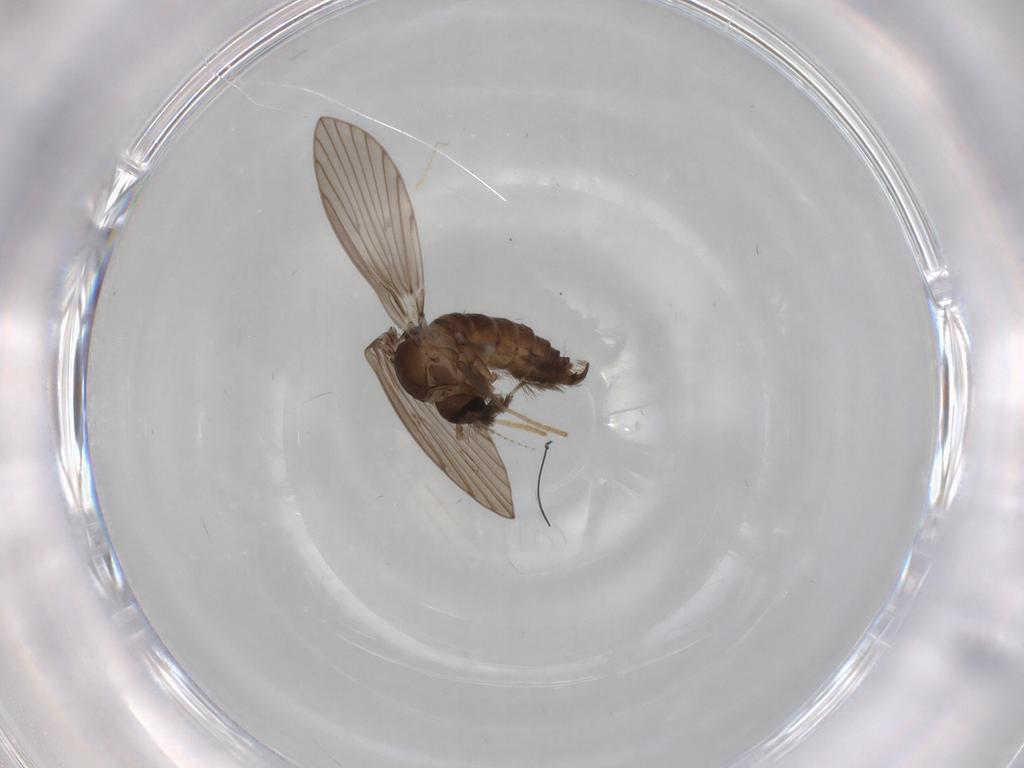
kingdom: Animalia
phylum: Arthropoda
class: Insecta
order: Diptera
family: Psychodidae
